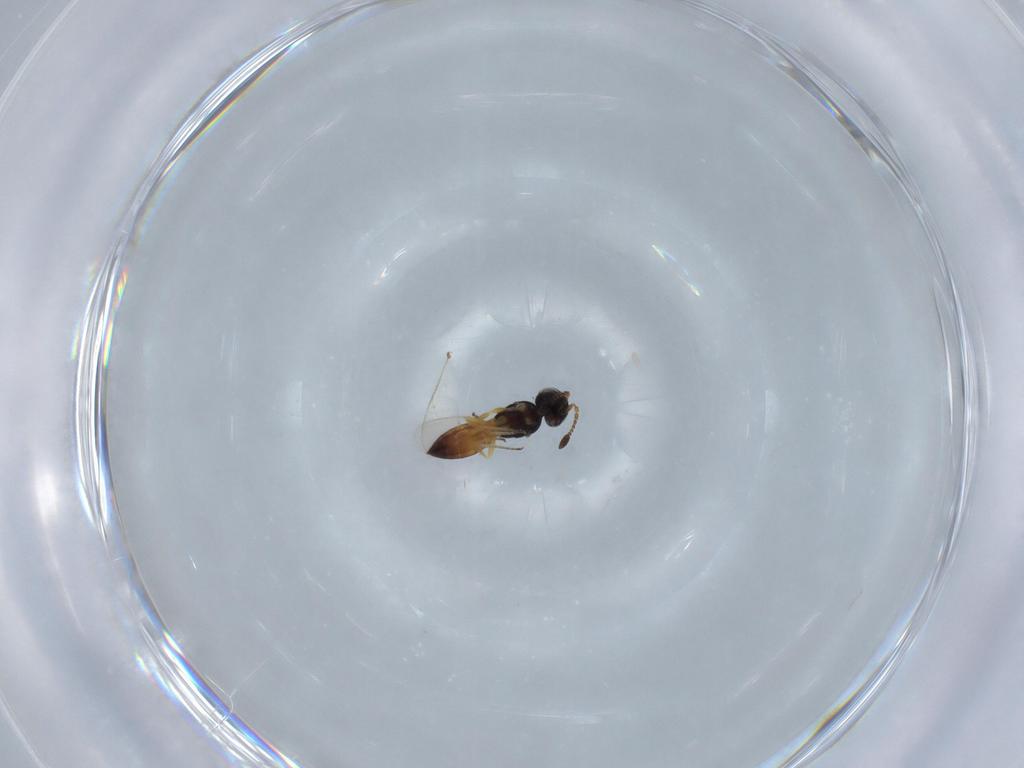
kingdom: Animalia
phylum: Arthropoda
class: Insecta
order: Hymenoptera
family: Scelionidae
